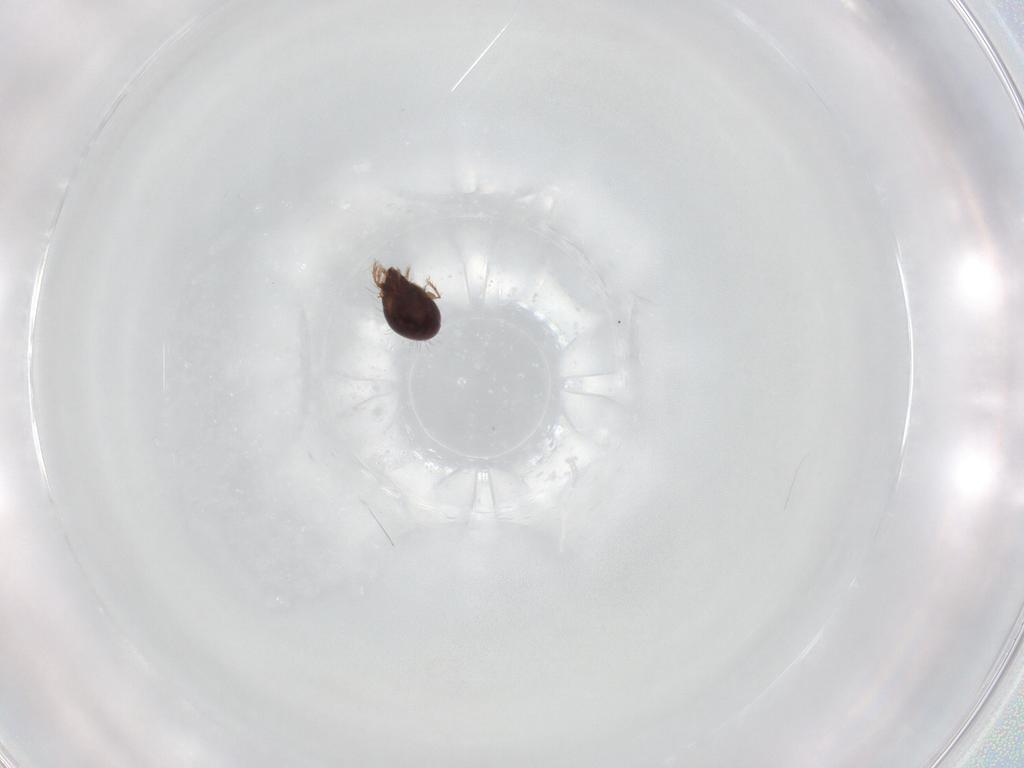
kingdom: Animalia
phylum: Arthropoda
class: Arachnida
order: Sarcoptiformes
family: Humerobatidae
